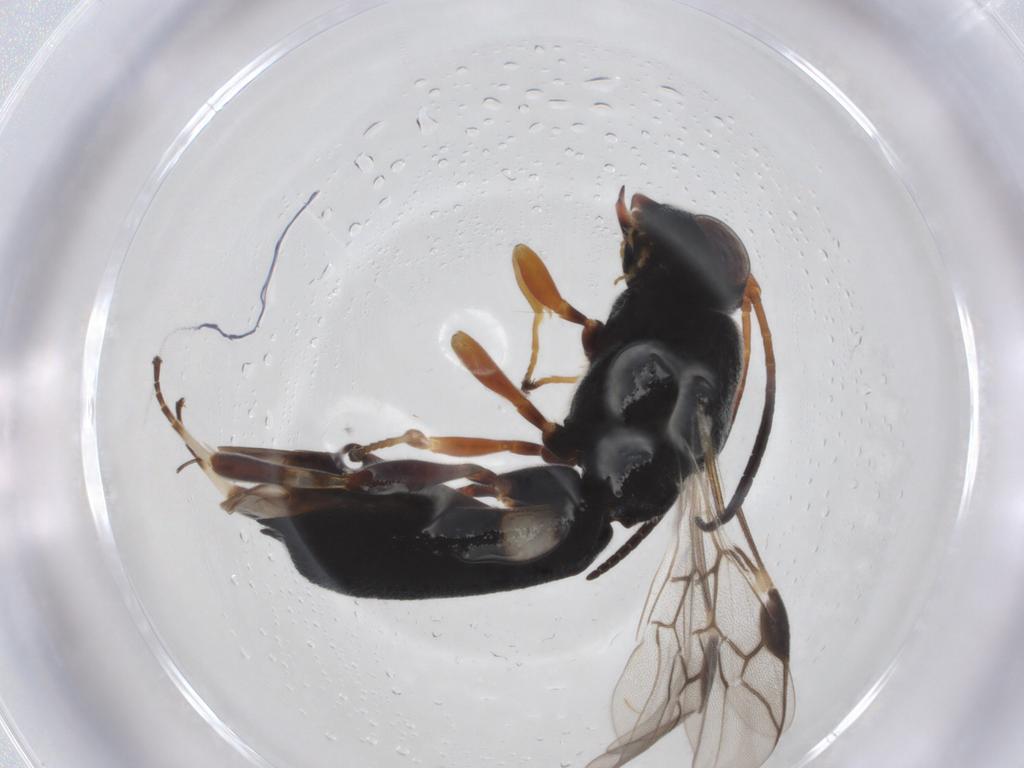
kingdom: Animalia
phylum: Arthropoda
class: Insecta
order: Hymenoptera
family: Braconidae
